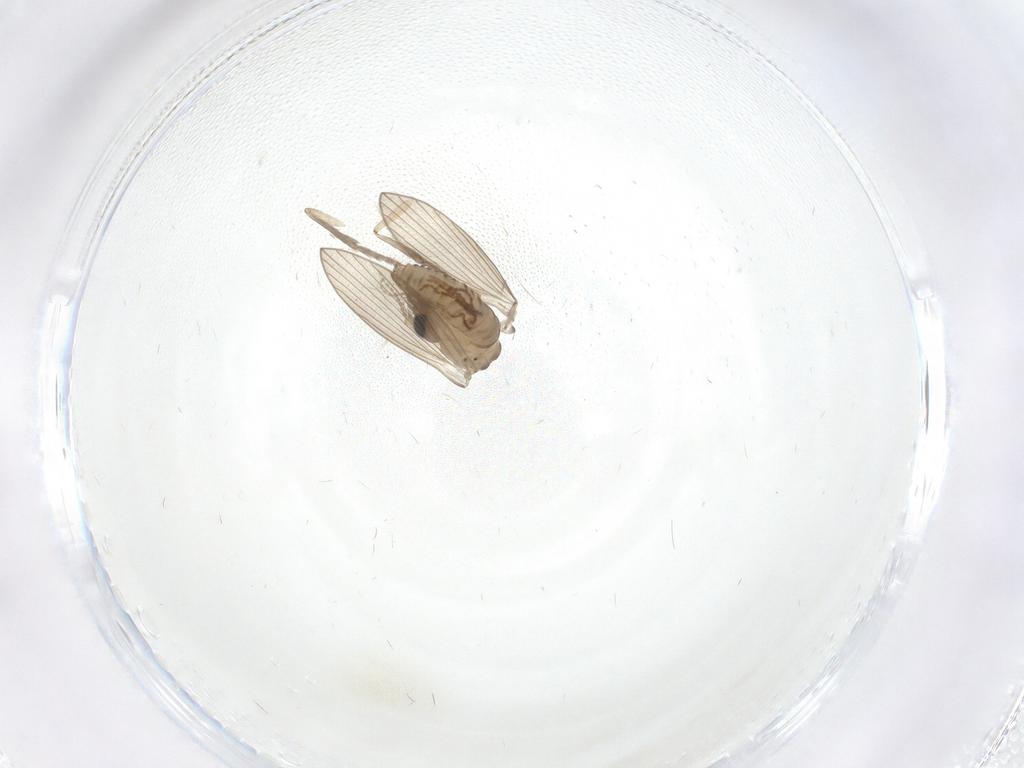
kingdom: Animalia
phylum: Arthropoda
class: Insecta
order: Diptera
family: Psychodidae
